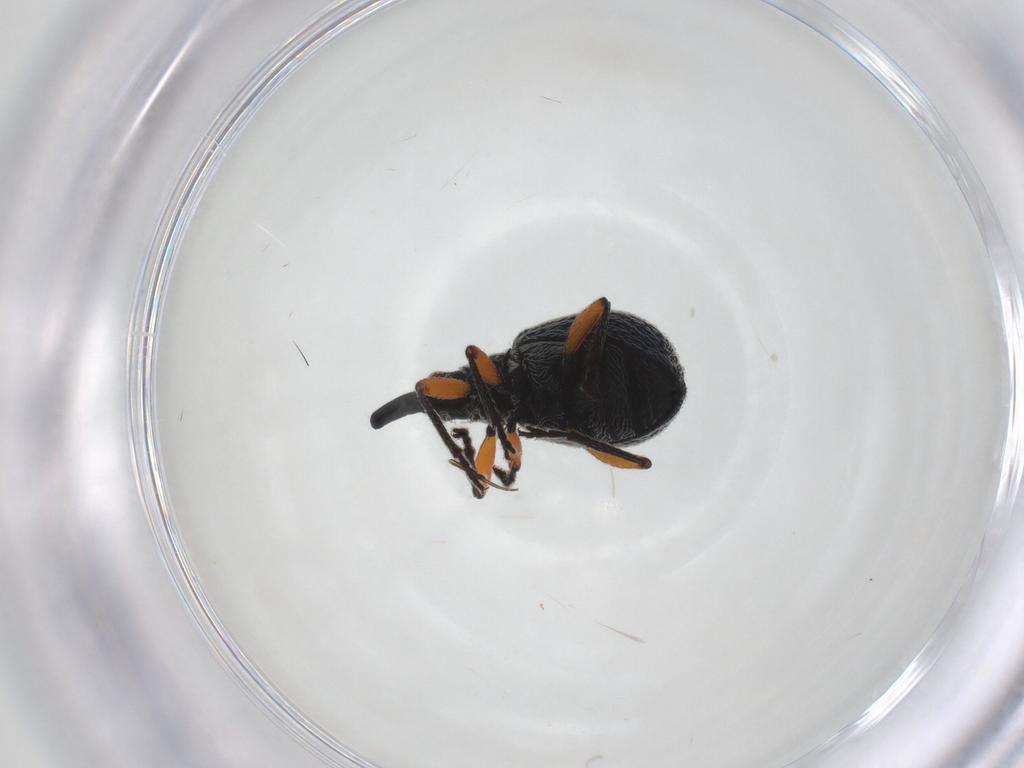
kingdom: Animalia
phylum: Arthropoda
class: Insecta
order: Coleoptera
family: Apionidae
